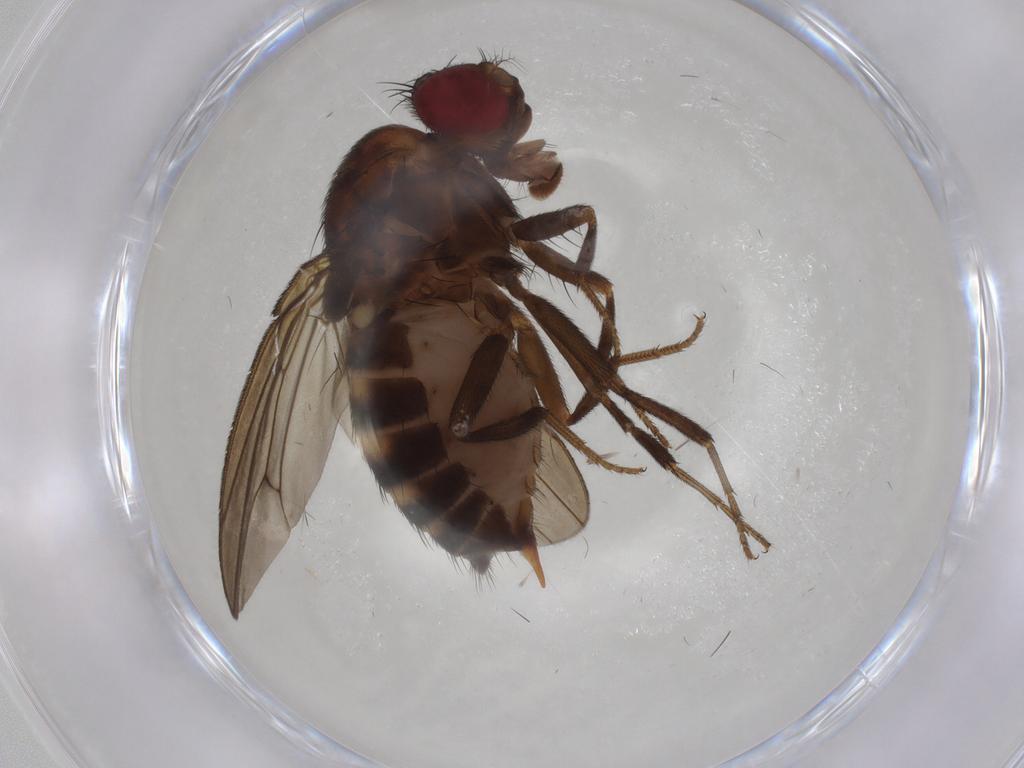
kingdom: Animalia
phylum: Arthropoda
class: Insecta
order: Diptera
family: Drosophilidae
